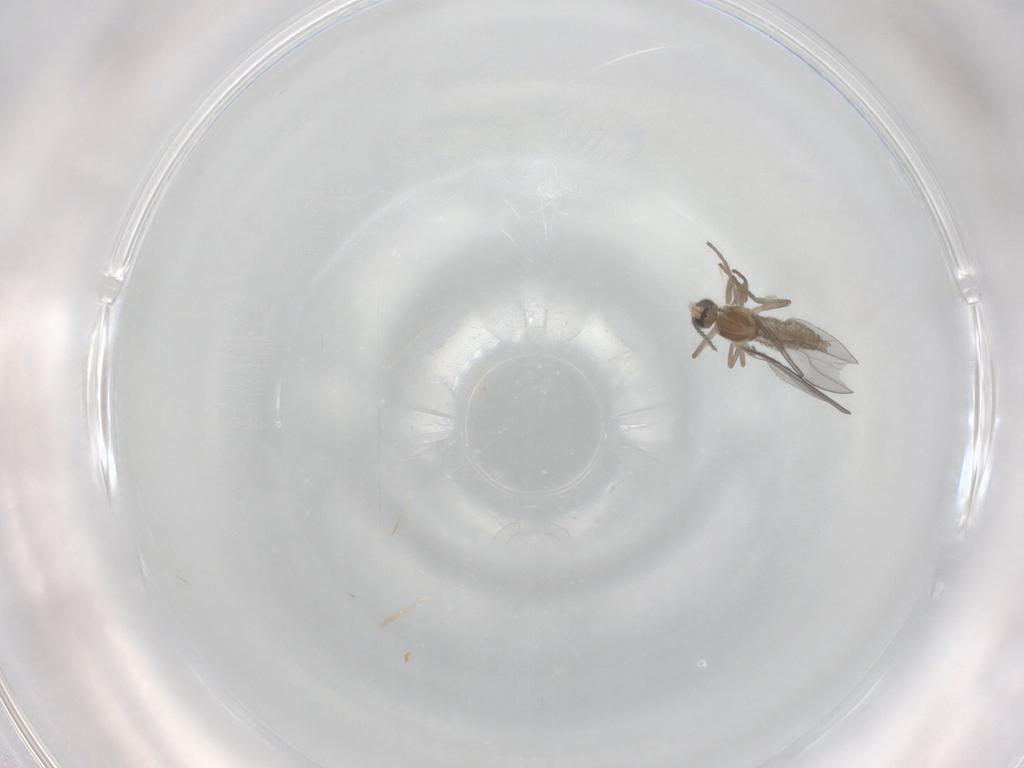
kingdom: Animalia
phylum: Arthropoda
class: Insecta
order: Diptera
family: Cecidomyiidae
